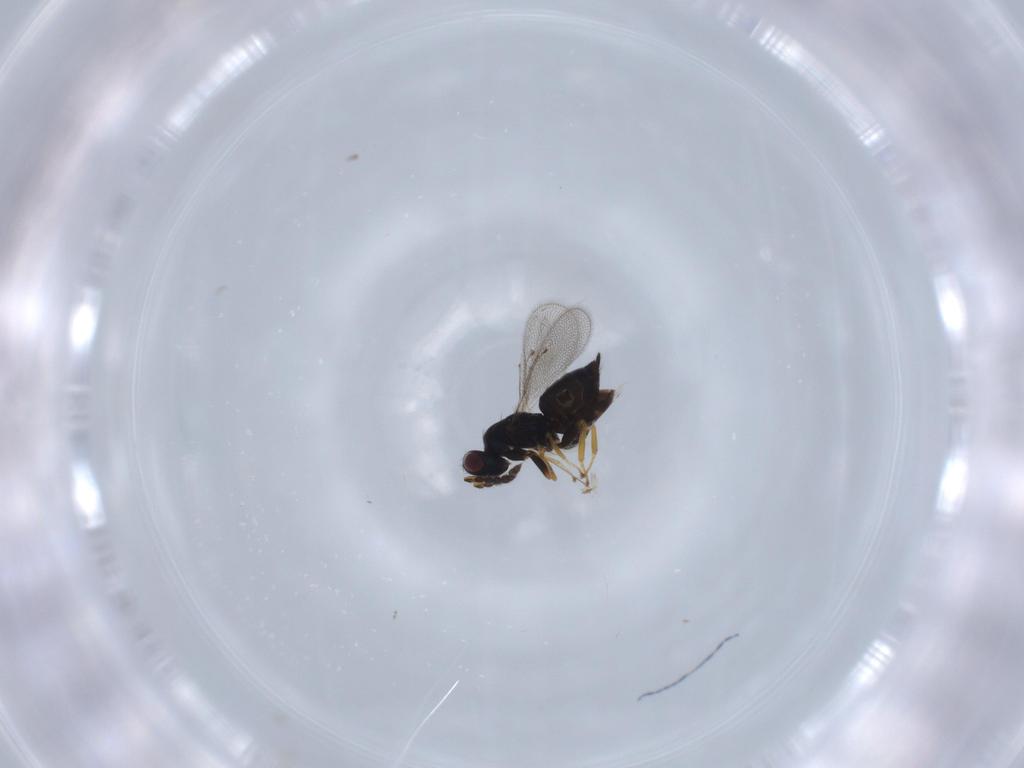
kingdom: Animalia
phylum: Arthropoda
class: Insecta
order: Hymenoptera
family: Eulophidae
